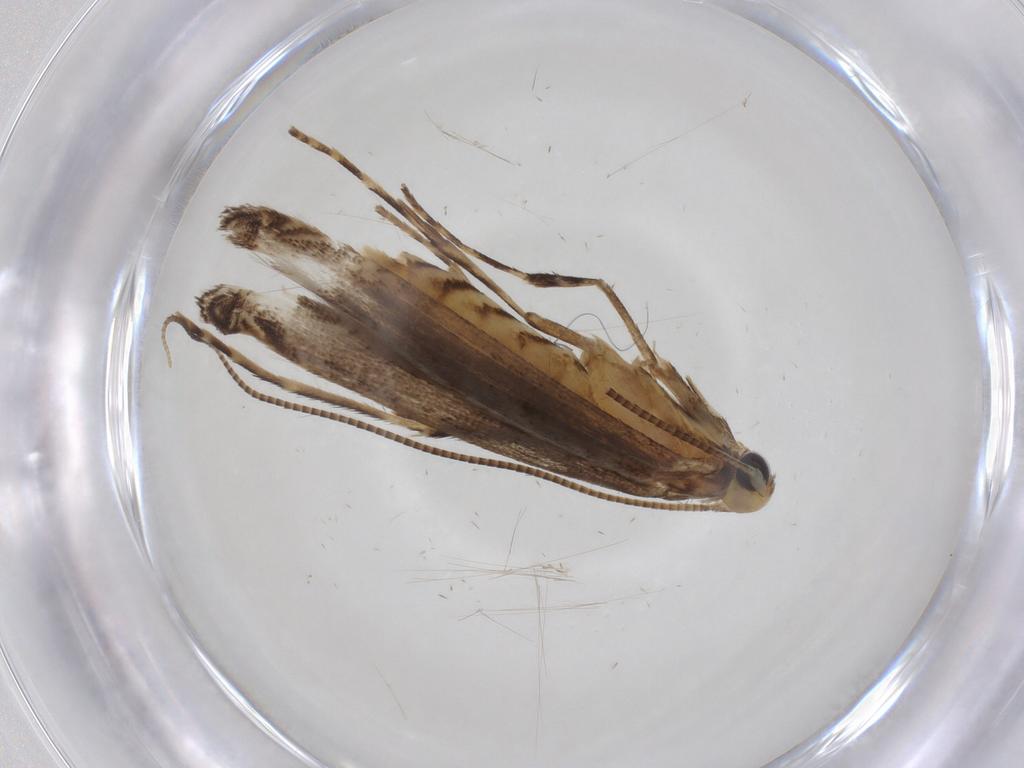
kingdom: Animalia
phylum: Arthropoda
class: Insecta
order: Lepidoptera
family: Gracillariidae
